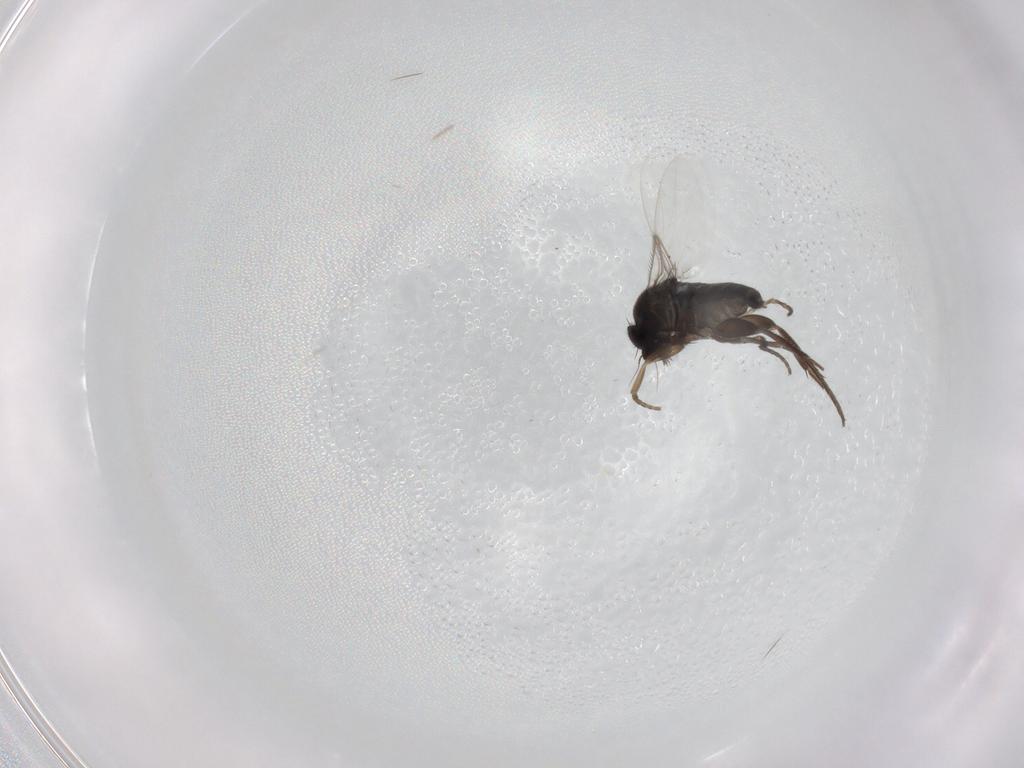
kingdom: Animalia
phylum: Arthropoda
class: Insecta
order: Diptera
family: Phoridae
